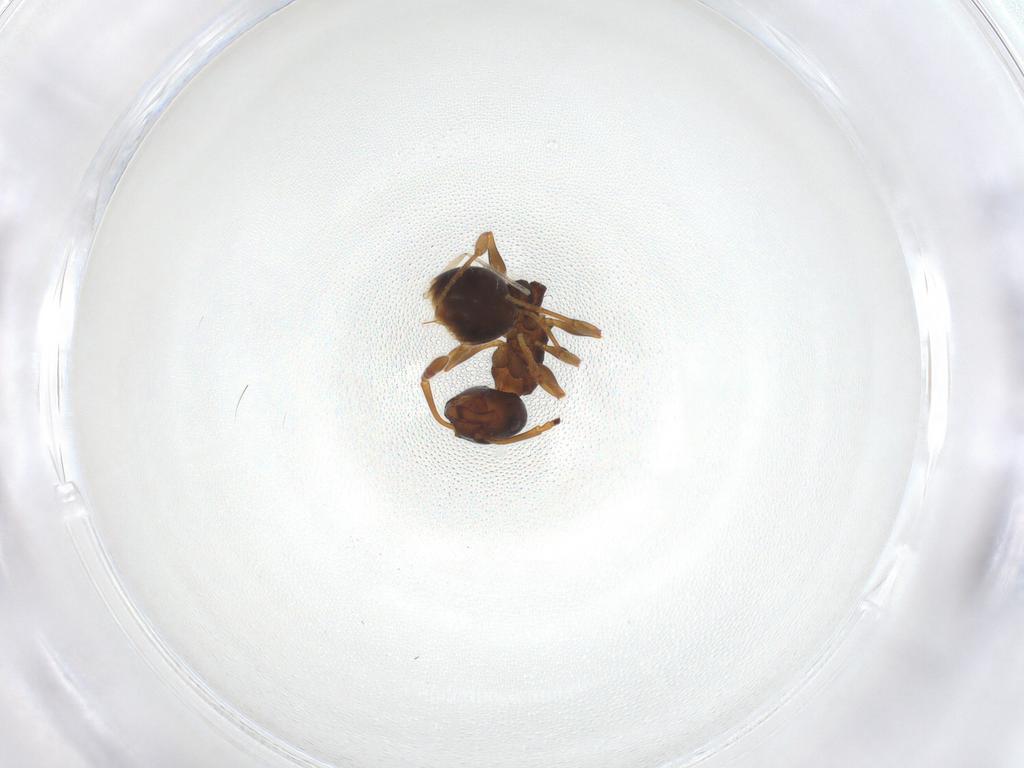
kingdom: Animalia
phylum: Arthropoda
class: Insecta
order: Hymenoptera
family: Formicidae
